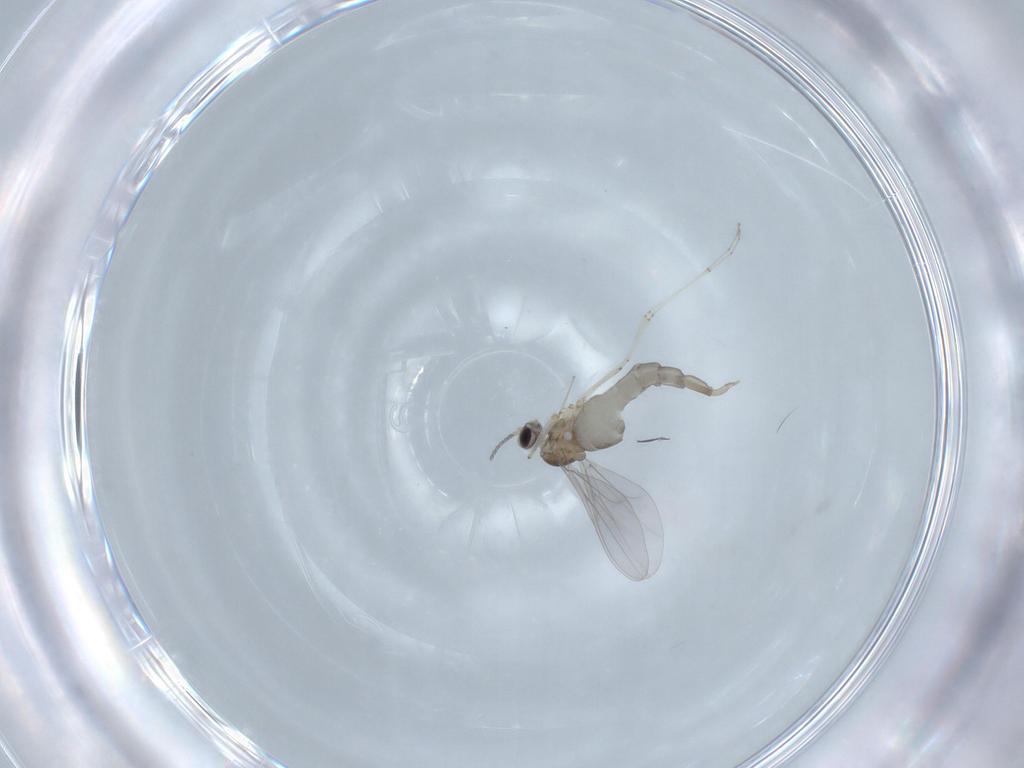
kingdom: Animalia
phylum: Arthropoda
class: Insecta
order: Diptera
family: Cecidomyiidae
